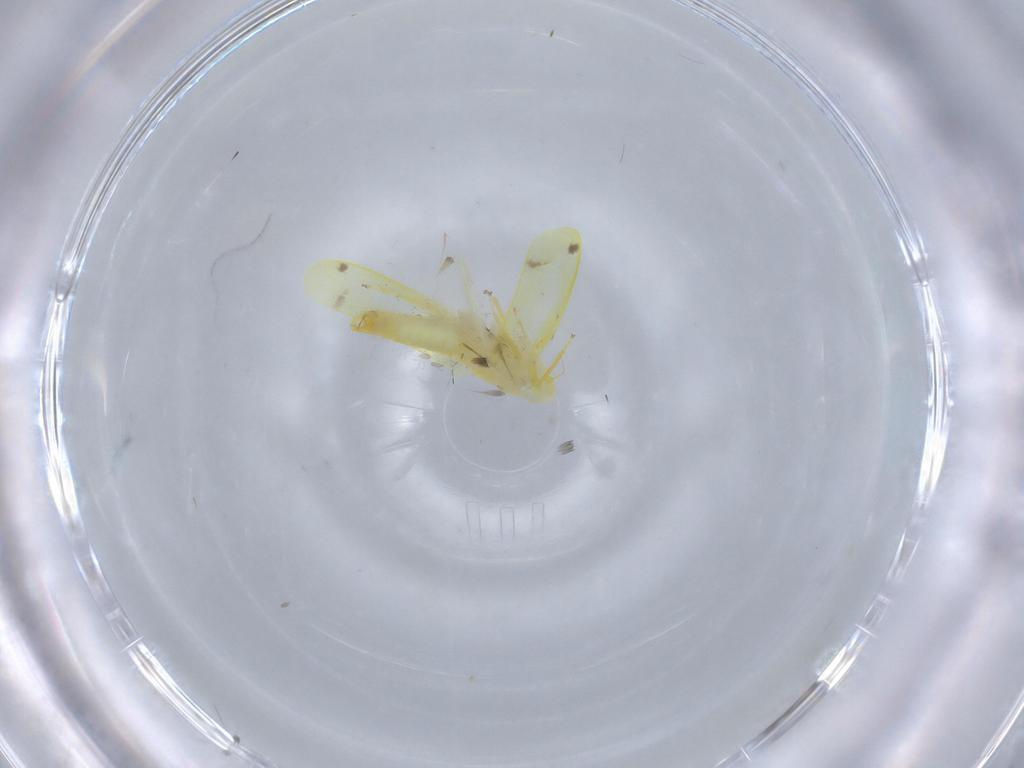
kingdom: Animalia
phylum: Arthropoda
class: Insecta
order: Hemiptera
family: Cicadellidae
